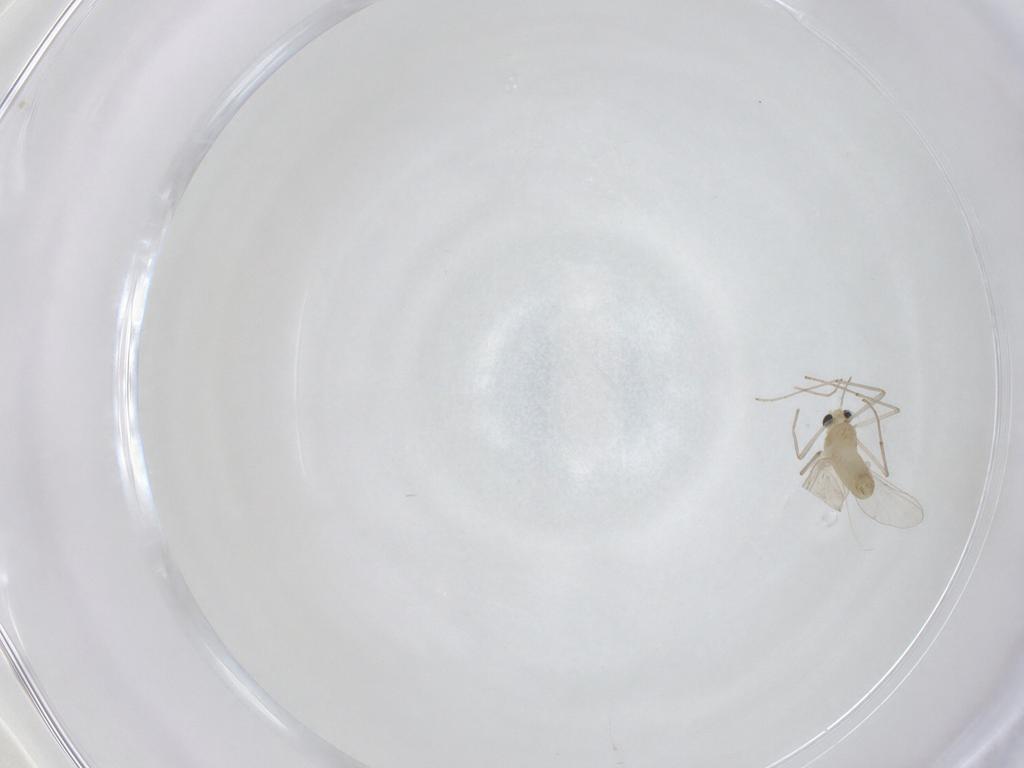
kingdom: Animalia
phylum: Arthropoda
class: Insecta
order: Diptera
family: Chironomidae
